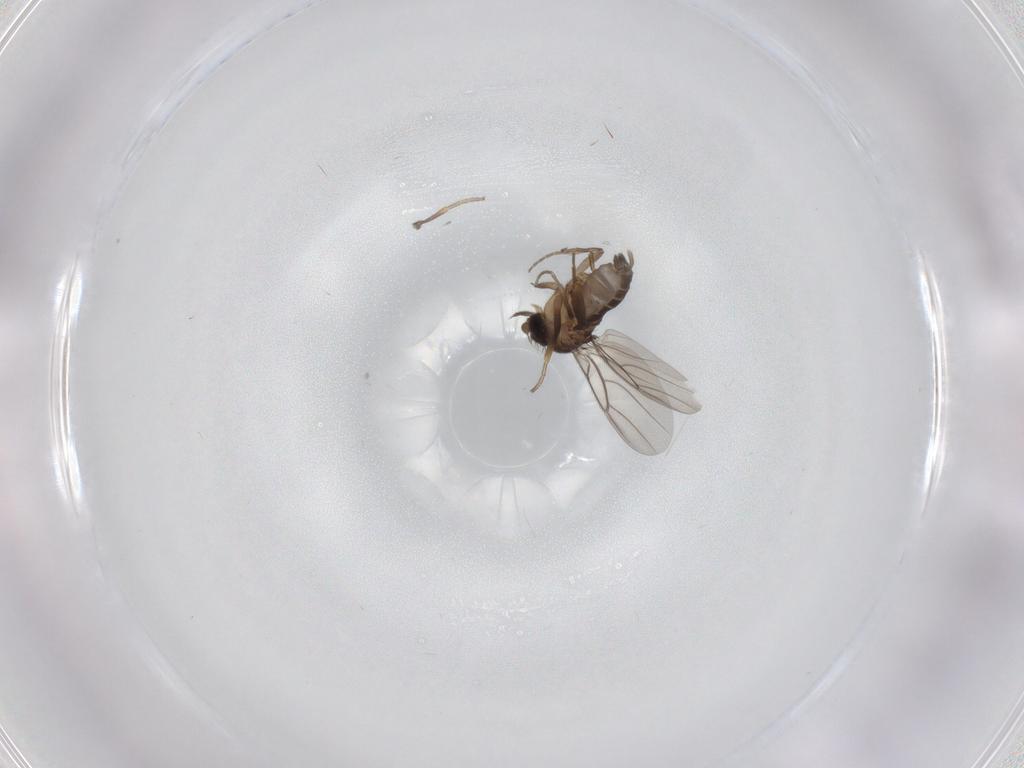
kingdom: Animalia
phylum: Arthropoda
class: Insecta
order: Diptera
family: Phoridae
